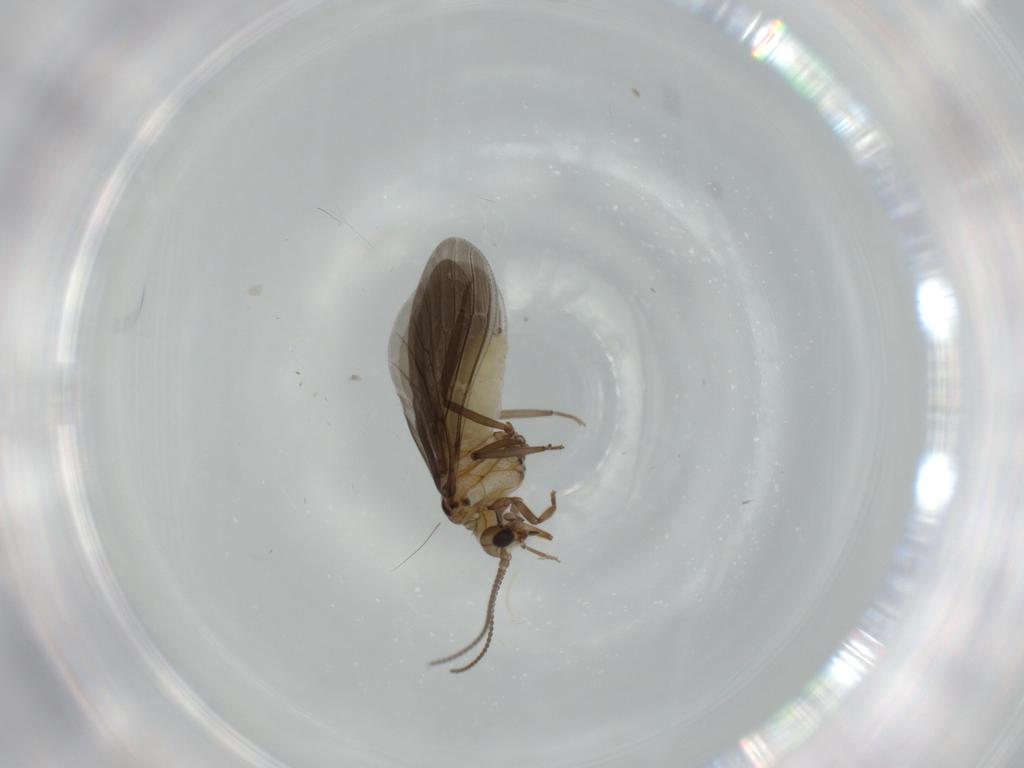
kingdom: Animalia
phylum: Arthropoda
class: Insecta
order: Neuroptera
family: Coniopterygidae
